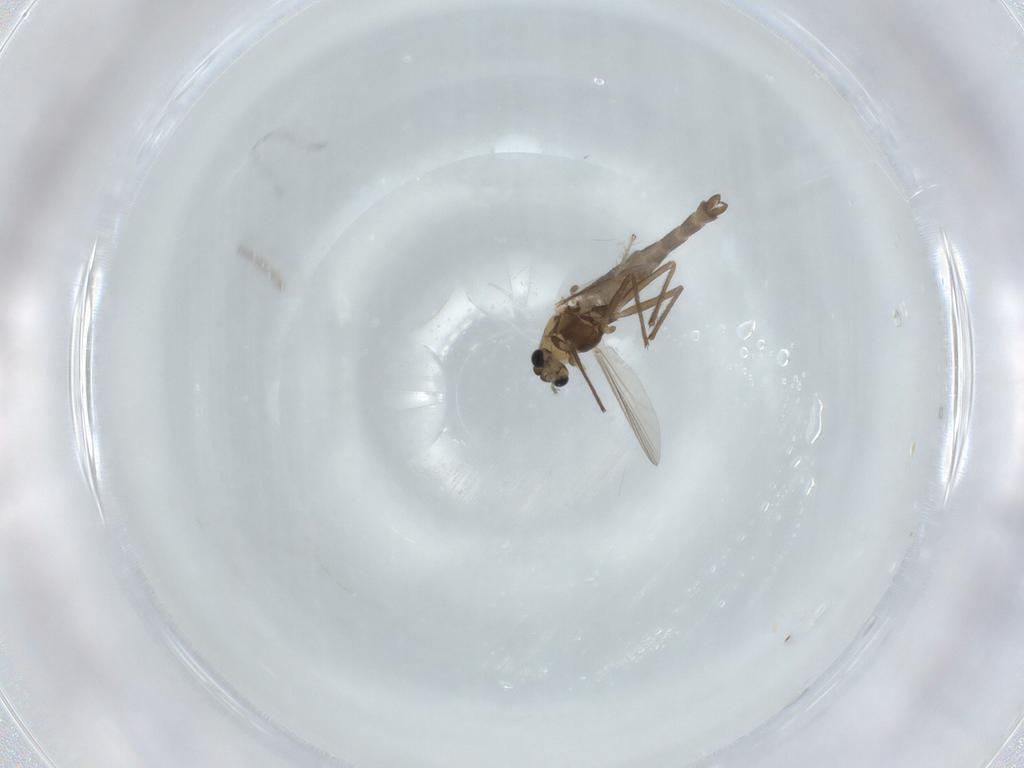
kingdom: Animalia
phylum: Arthropoda
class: Insecta
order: Diptera
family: Chironomidae
